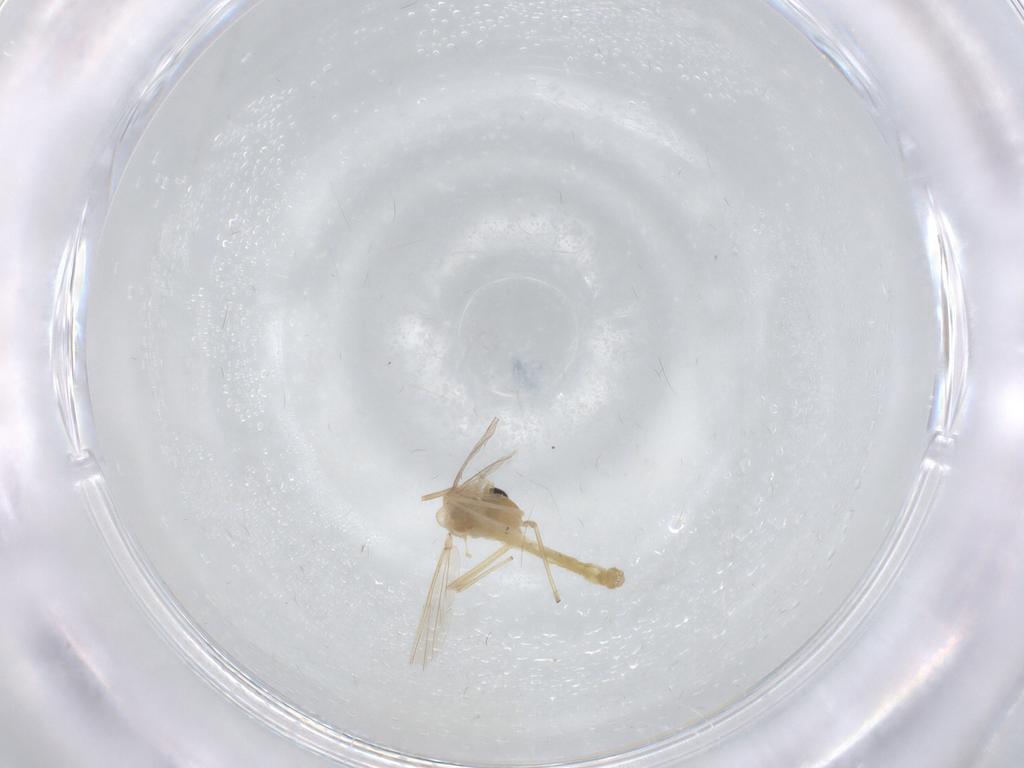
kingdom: Animalia
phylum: Arthropoda
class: Insecta
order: Diptera
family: Chironomidae
